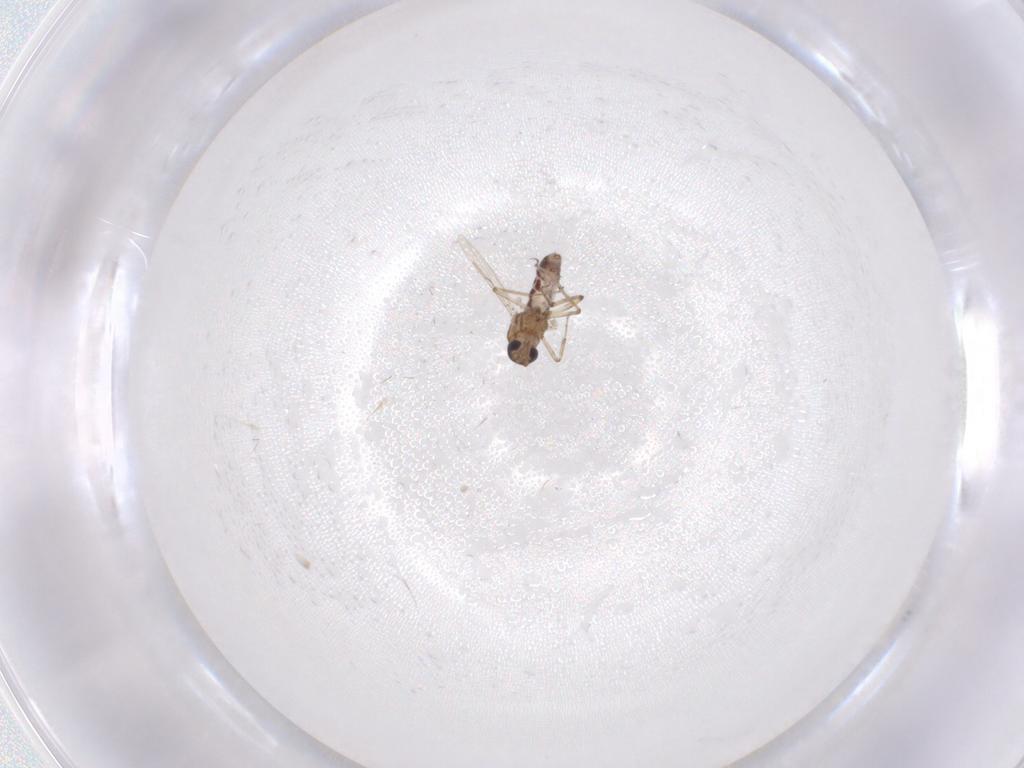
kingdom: Animalia
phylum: Arthropoda
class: Insecta
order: Diptera
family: Ceratopogonidae
